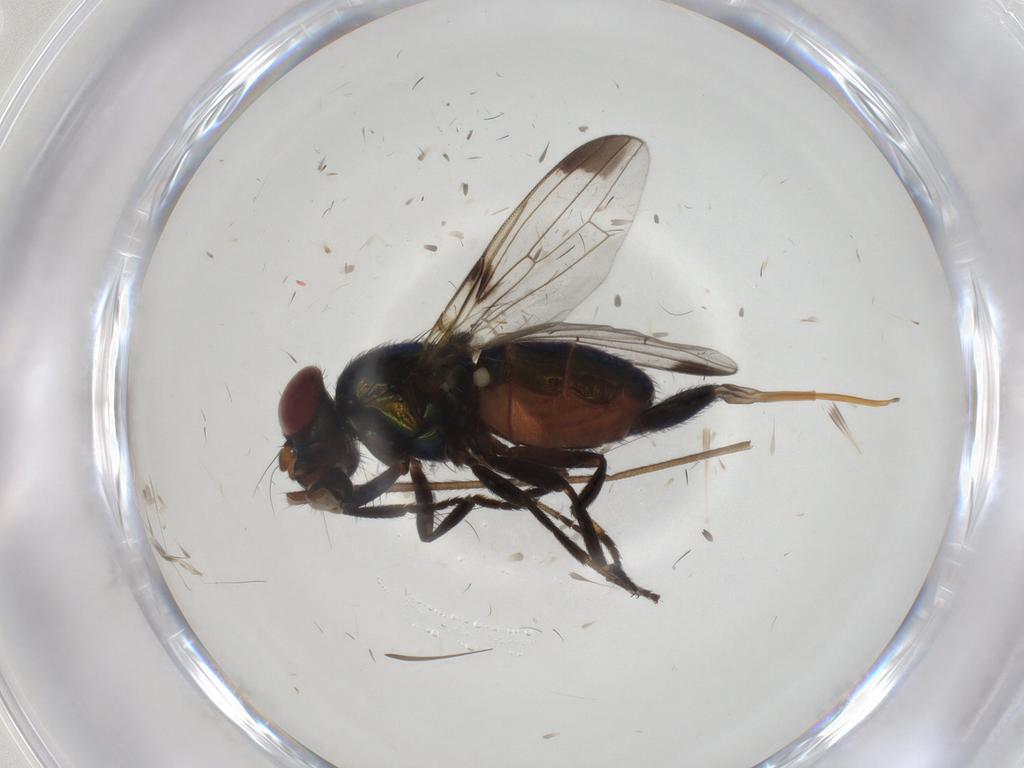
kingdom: Animalia
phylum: Arthropoda
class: Insecta
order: Diptera
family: Ulidiidae
